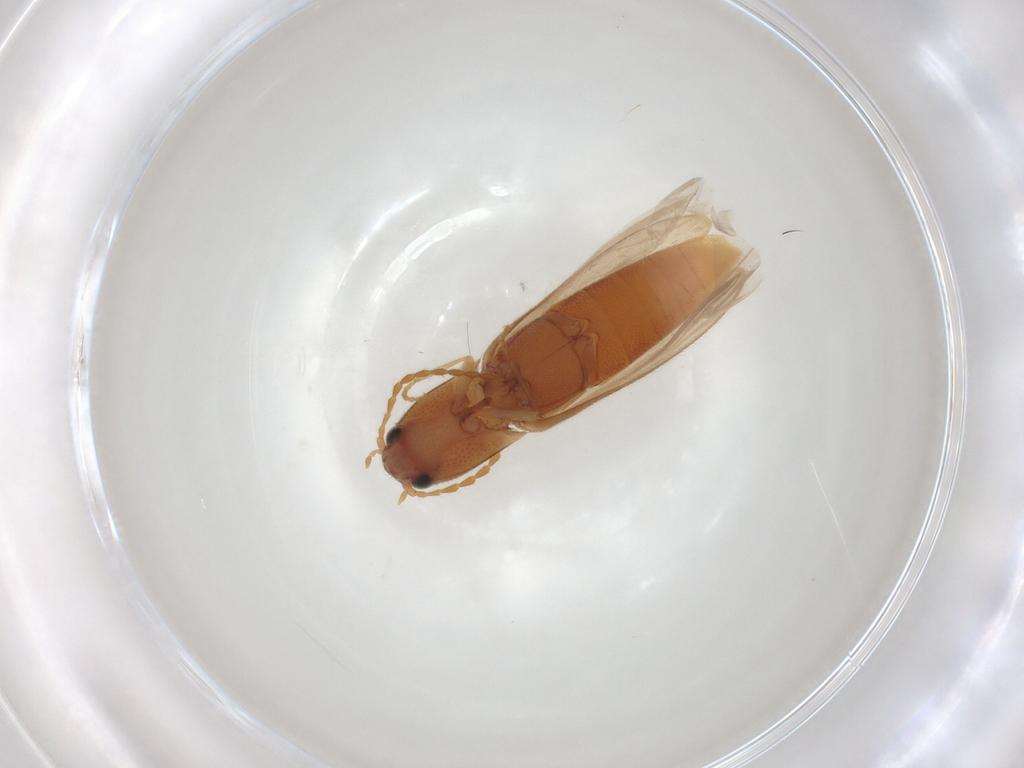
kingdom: Animalia
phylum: Arthropoda
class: Insecta
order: Coleoptera
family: Elateridae
